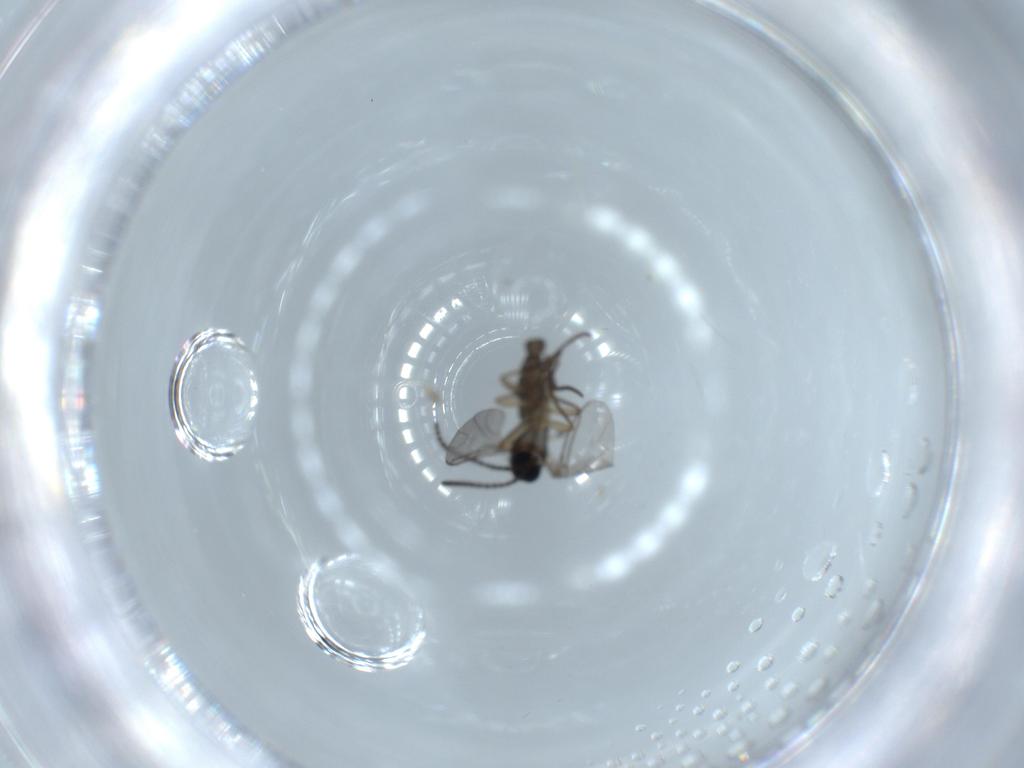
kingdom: Animalia
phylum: Arthropoda
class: Insecta
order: Diptera
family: Sciaridae
